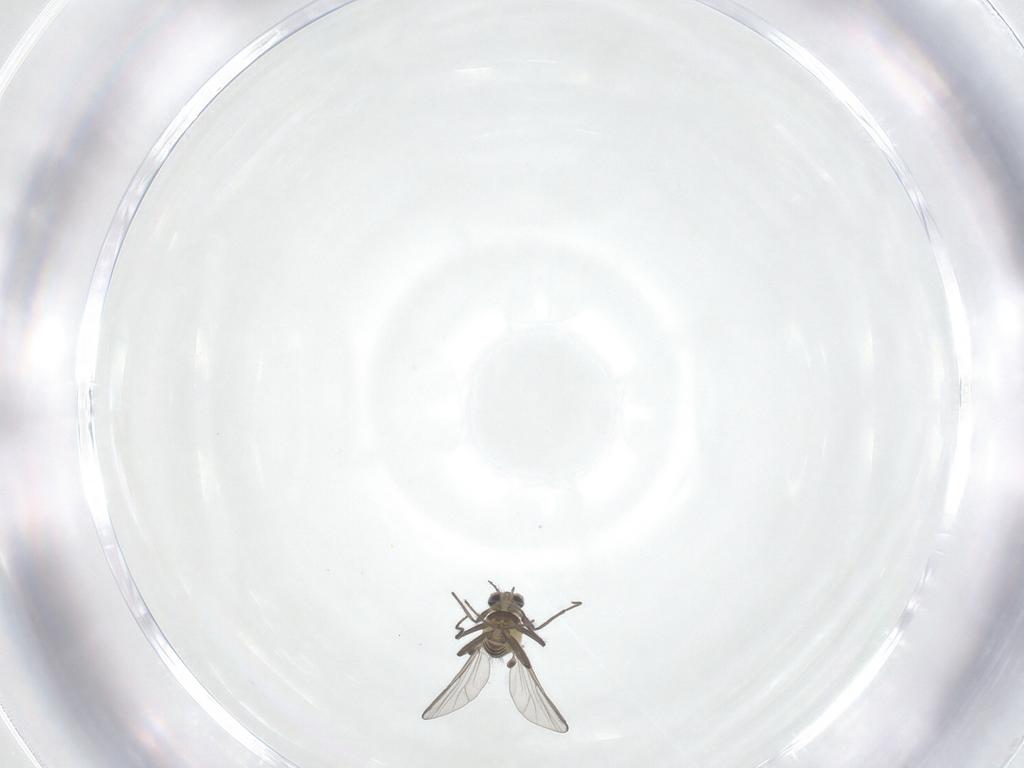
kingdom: Animalia
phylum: Arthropoda
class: Insecta
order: Diptera
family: Chironomidae
